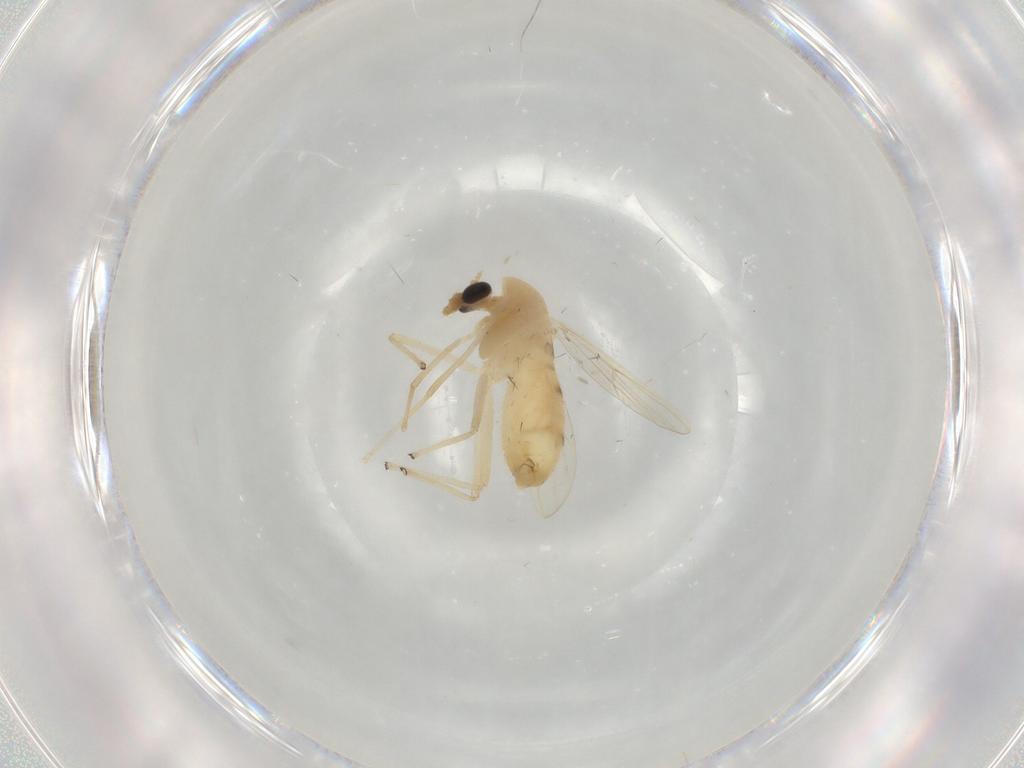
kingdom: Animalia
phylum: Arthropoda
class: Insecta
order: Diptera
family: Chironomidae
